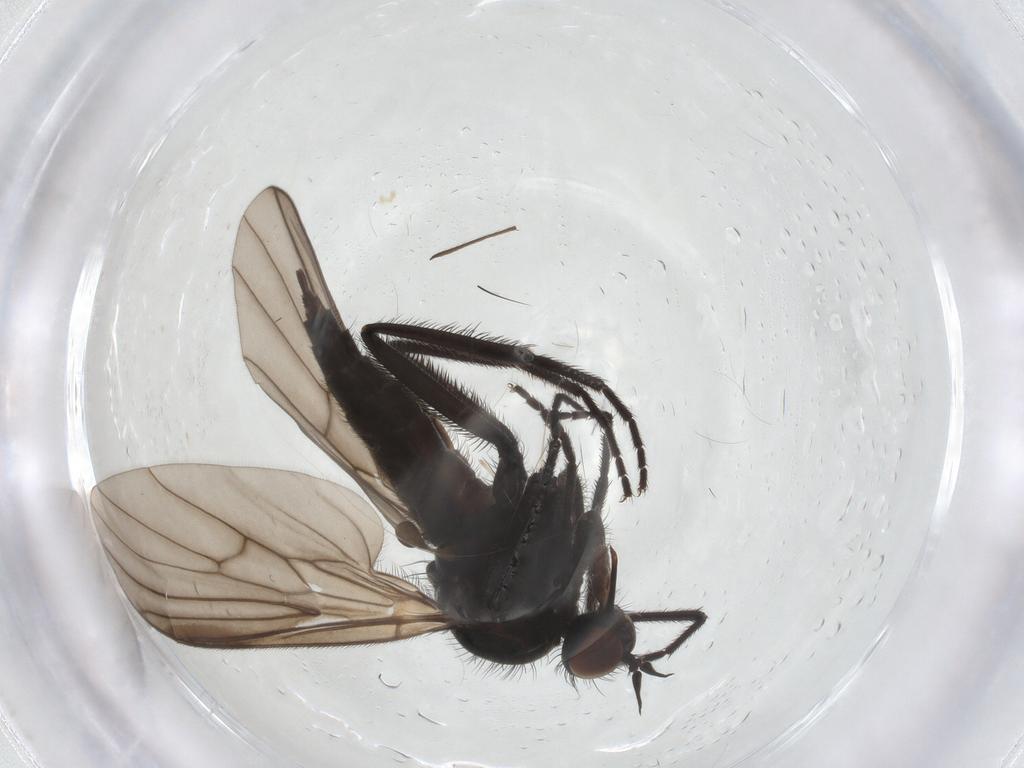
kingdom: Animalia
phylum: Arthropoda
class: Insecta
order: Diptera
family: Empididae
